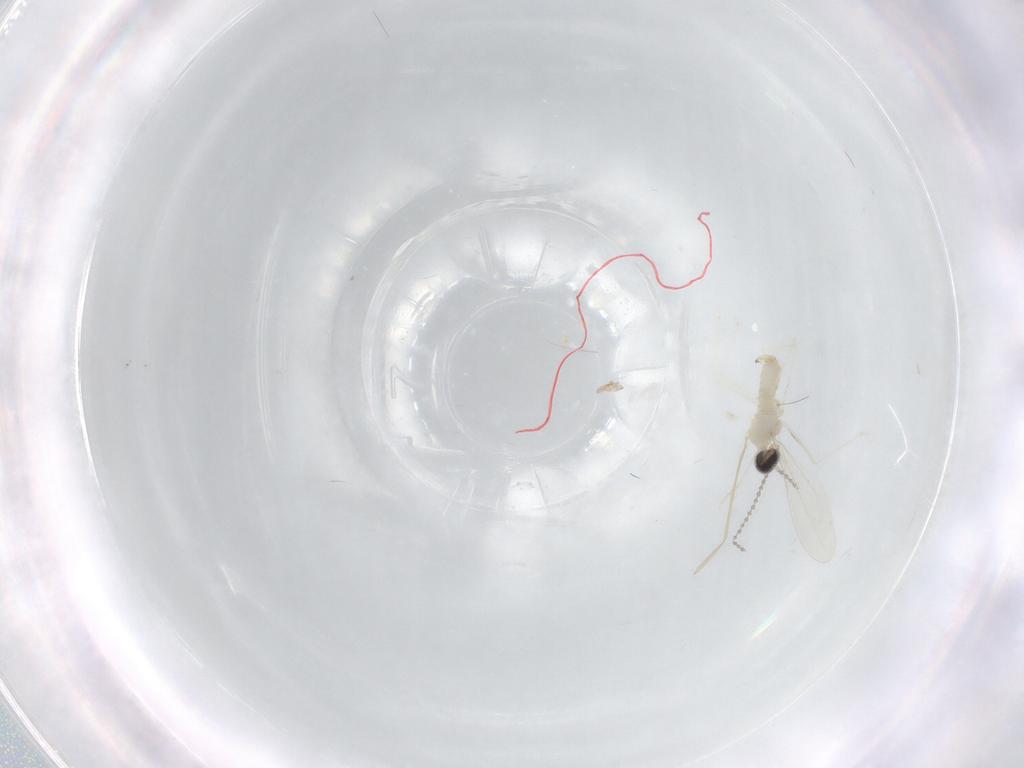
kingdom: Animalia
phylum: Arthropoda
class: Insecta
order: Diptera
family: Cecidomyiidae
